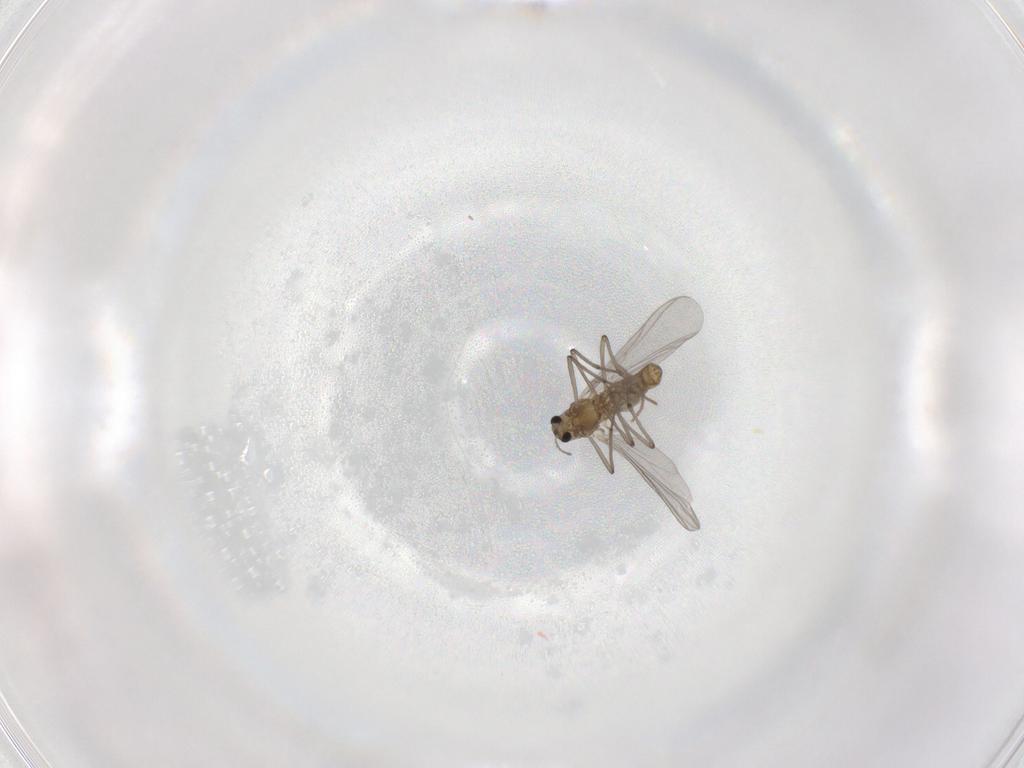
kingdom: Animalia
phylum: Arthropoda
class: Insecta
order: Diptera
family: Chironomidae
